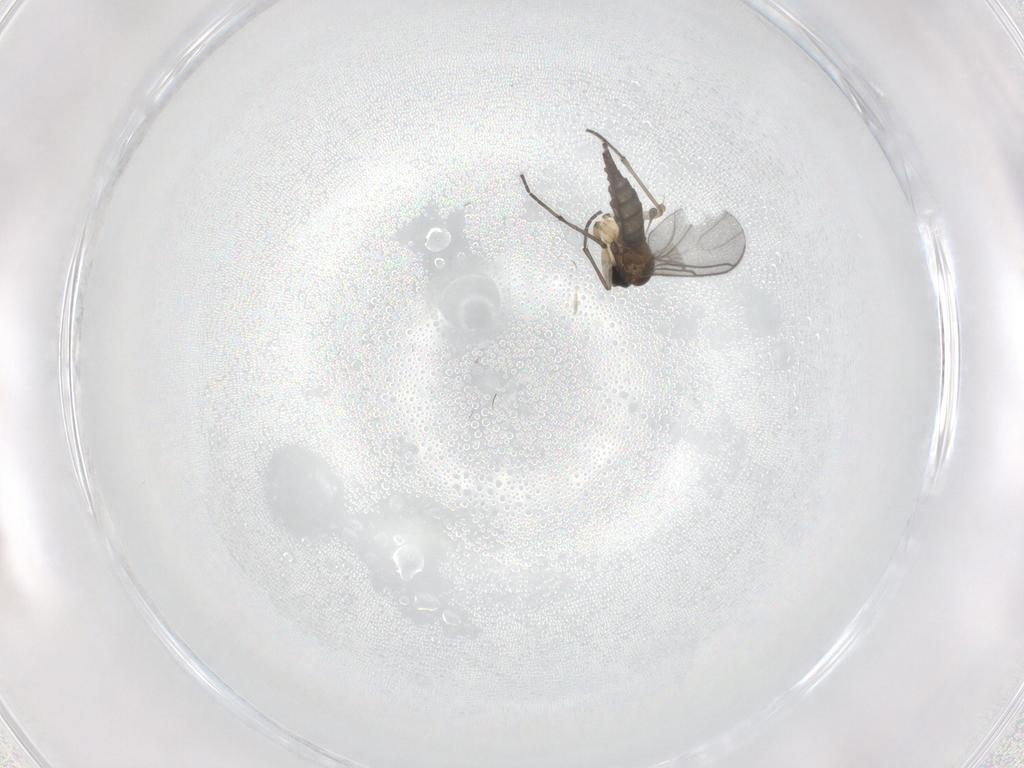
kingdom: Animalia
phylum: Arthropoda
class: Insecta
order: Diptera
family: Sciaridae
